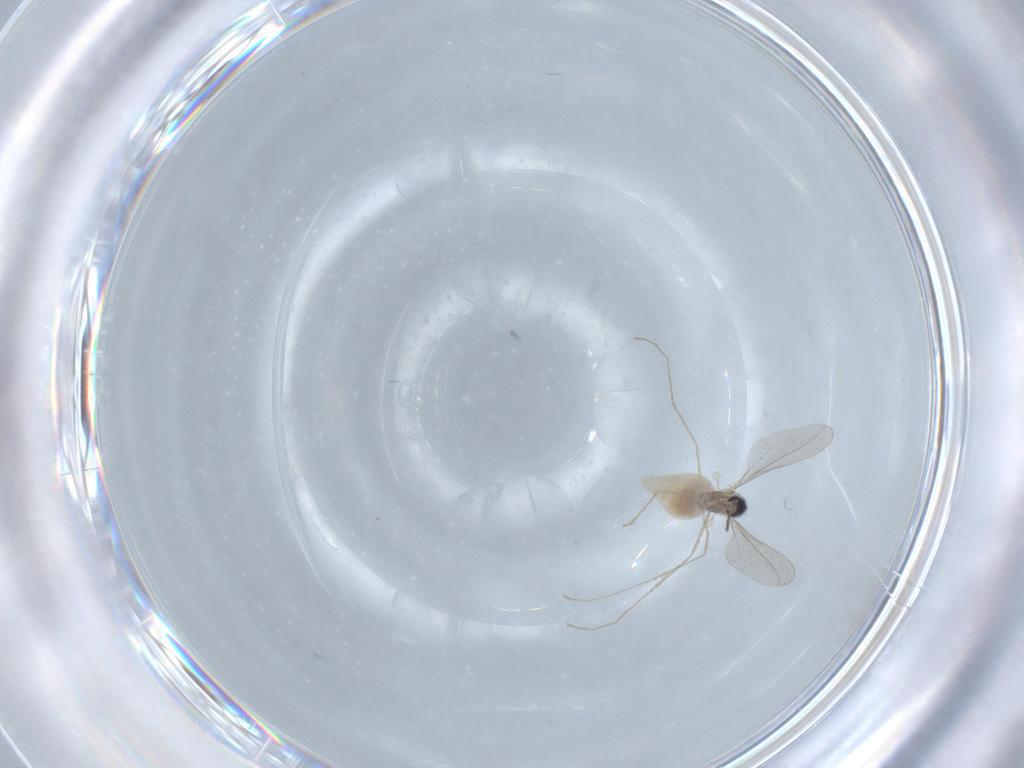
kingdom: Animalia
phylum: Arthropoda
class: Insecta
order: Diptera
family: Cecidomyiidae
